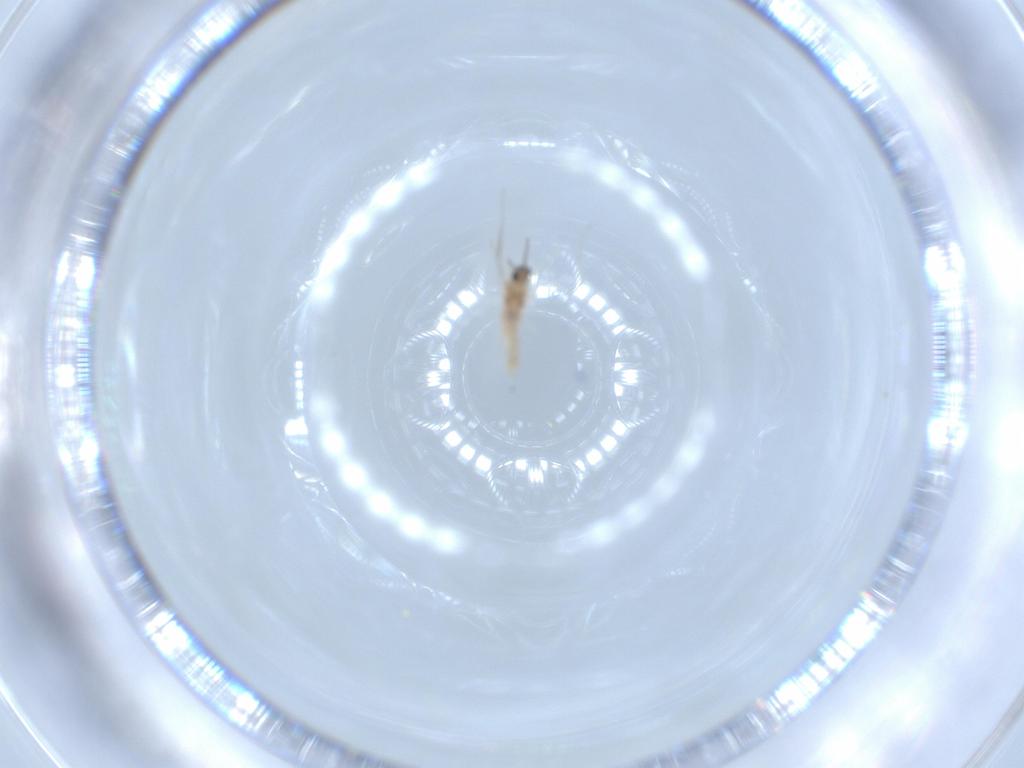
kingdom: Animalia
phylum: Arthropoda
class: Insecta
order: Diptera
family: Cecidomyiidae
